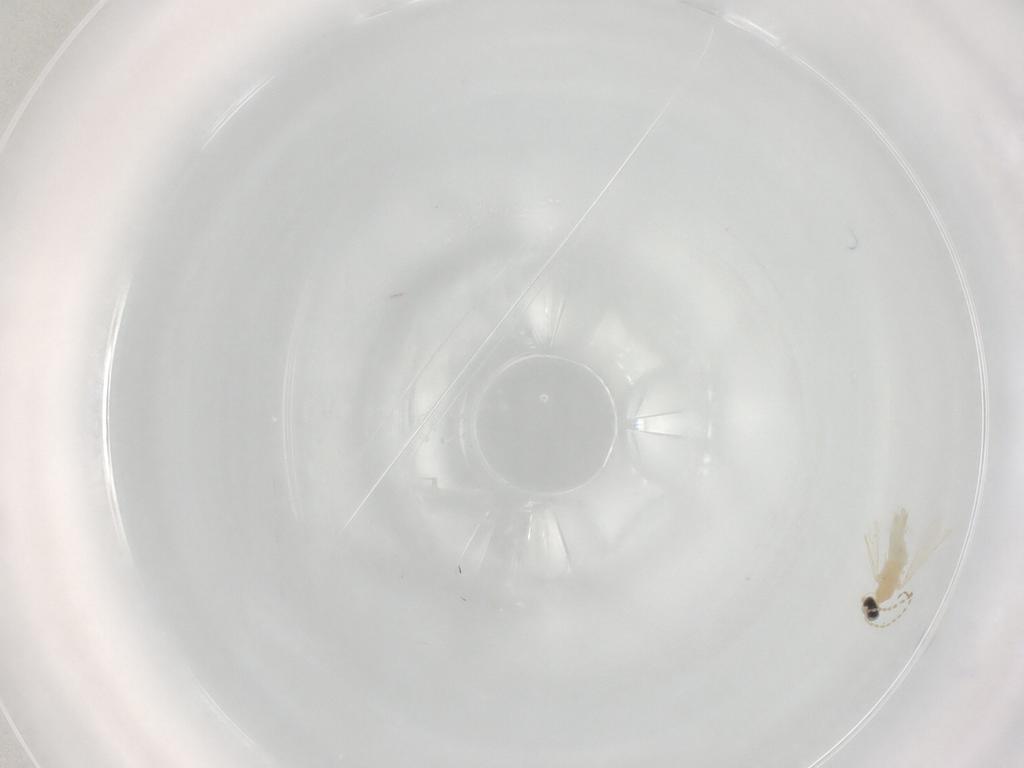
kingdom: Animalia
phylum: Arthropoda
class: Insecta
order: Diptera
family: Cecidomyiidae
